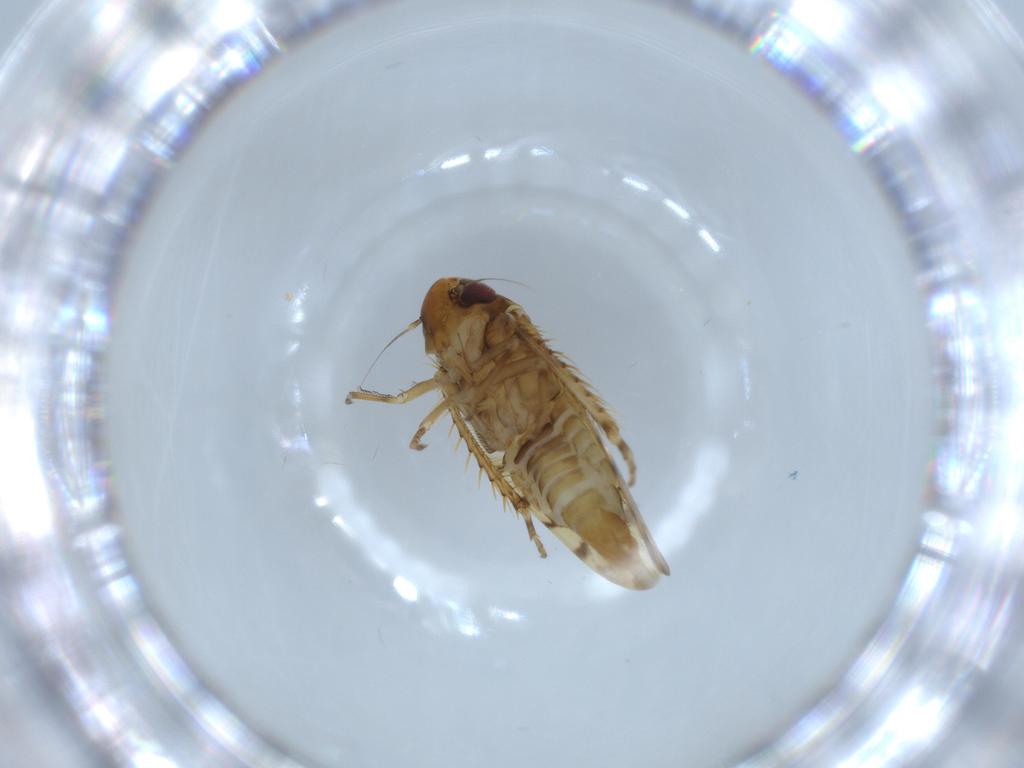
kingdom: Animalia
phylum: Arthropoda
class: Insecta
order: Hemiptera
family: Cicadellidae
